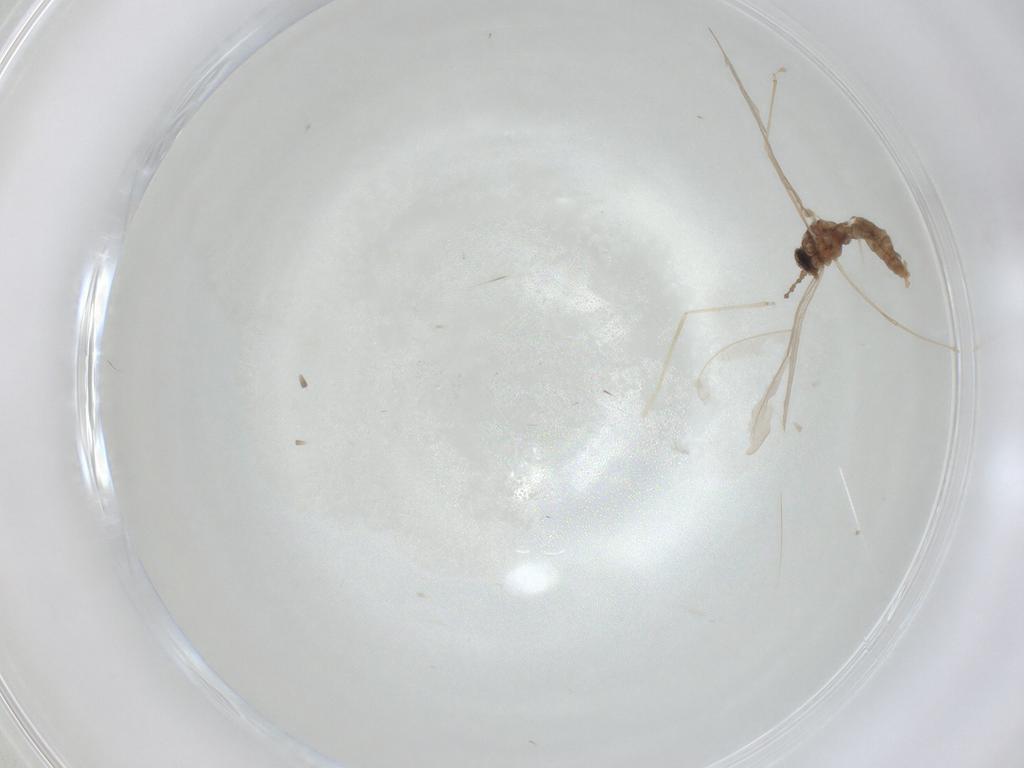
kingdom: Animalia
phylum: Arthropoda
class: Insecta
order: Diptera
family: Cecidomyiidae
